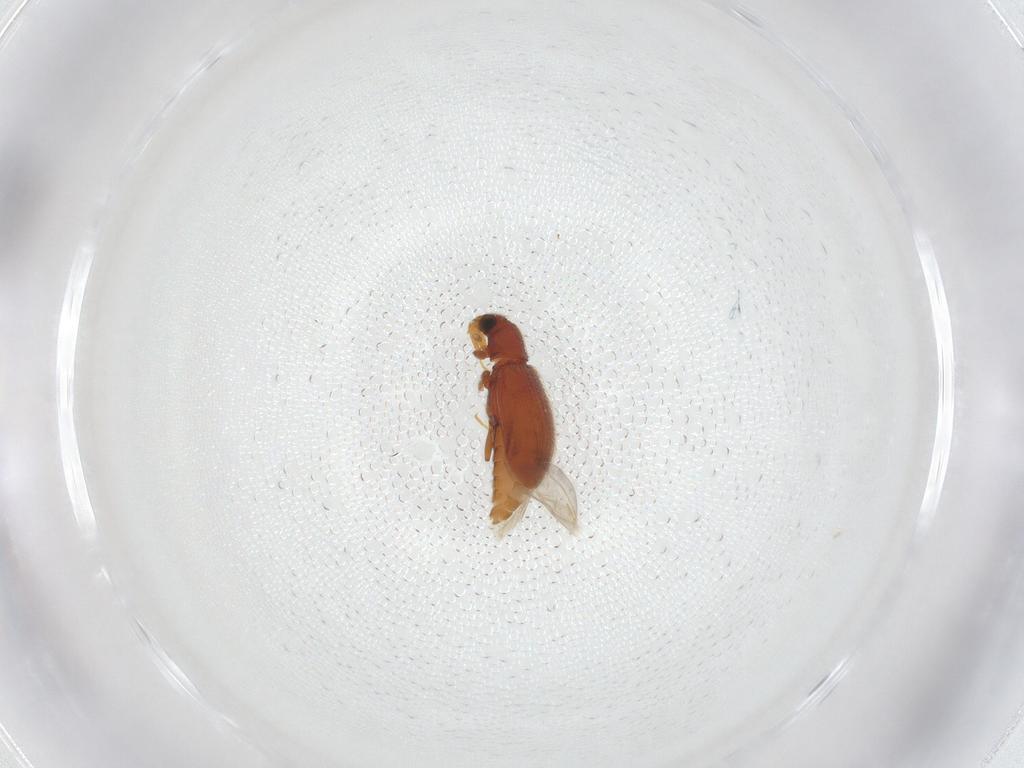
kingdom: Animalia
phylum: Arthropoda
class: Insecta
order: Coleoptera
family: Latridiidae
